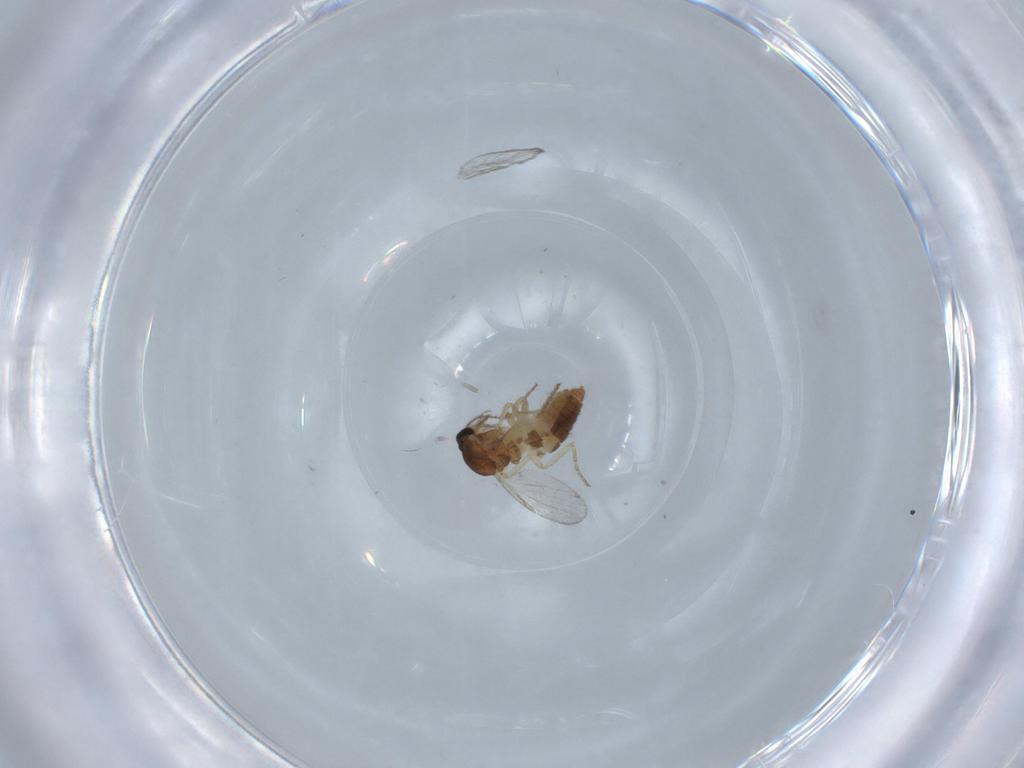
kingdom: Animalia
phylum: Arthropoda
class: Insecta
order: Diptera
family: Ceratopogonidae
